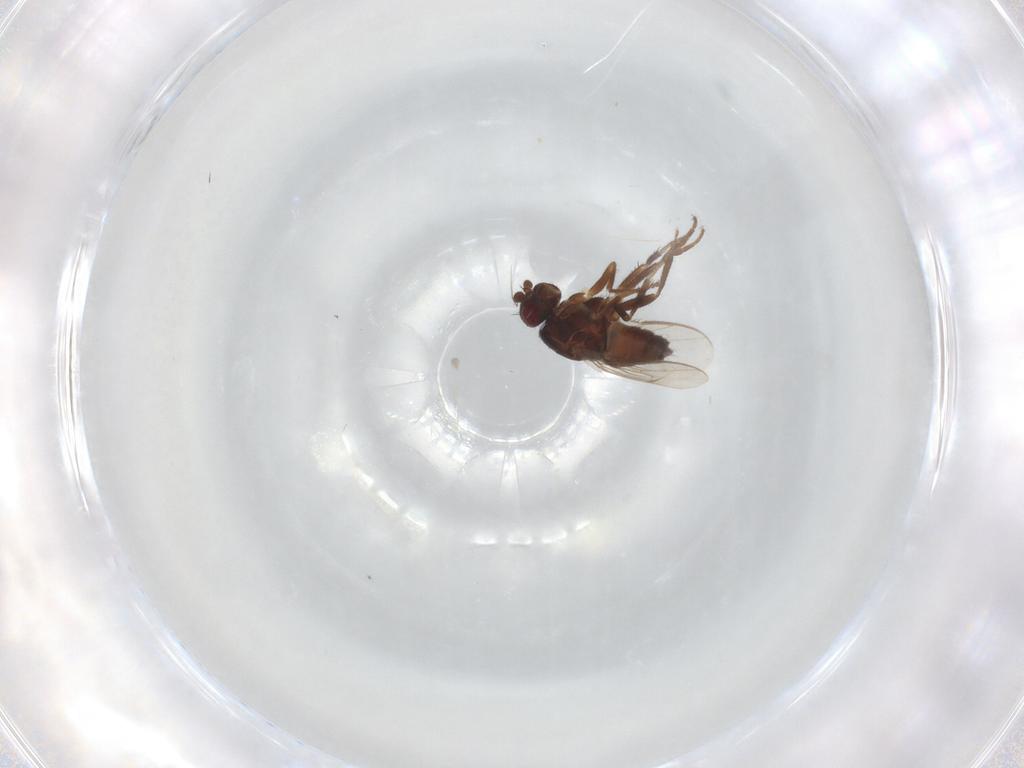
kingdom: Animalia
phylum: Arthropoda
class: Insecta
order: Diptera
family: Sphaeroceridae
